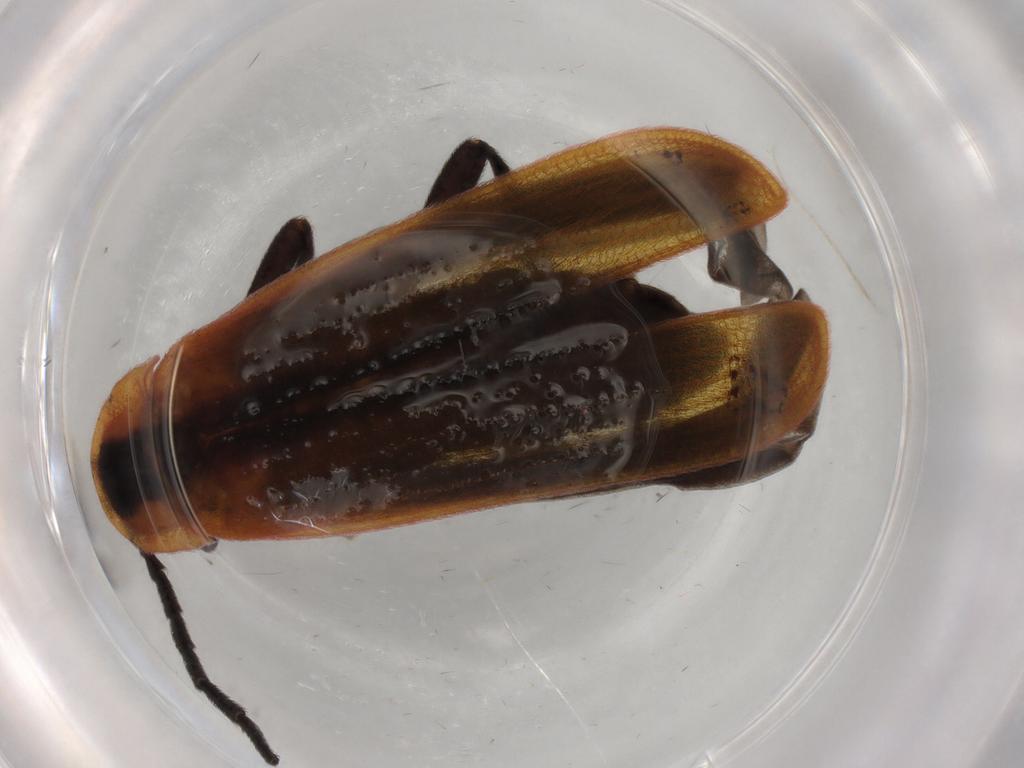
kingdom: Animalia
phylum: Arthropoda
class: Insecta
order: Coleoptera
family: Lycidae
